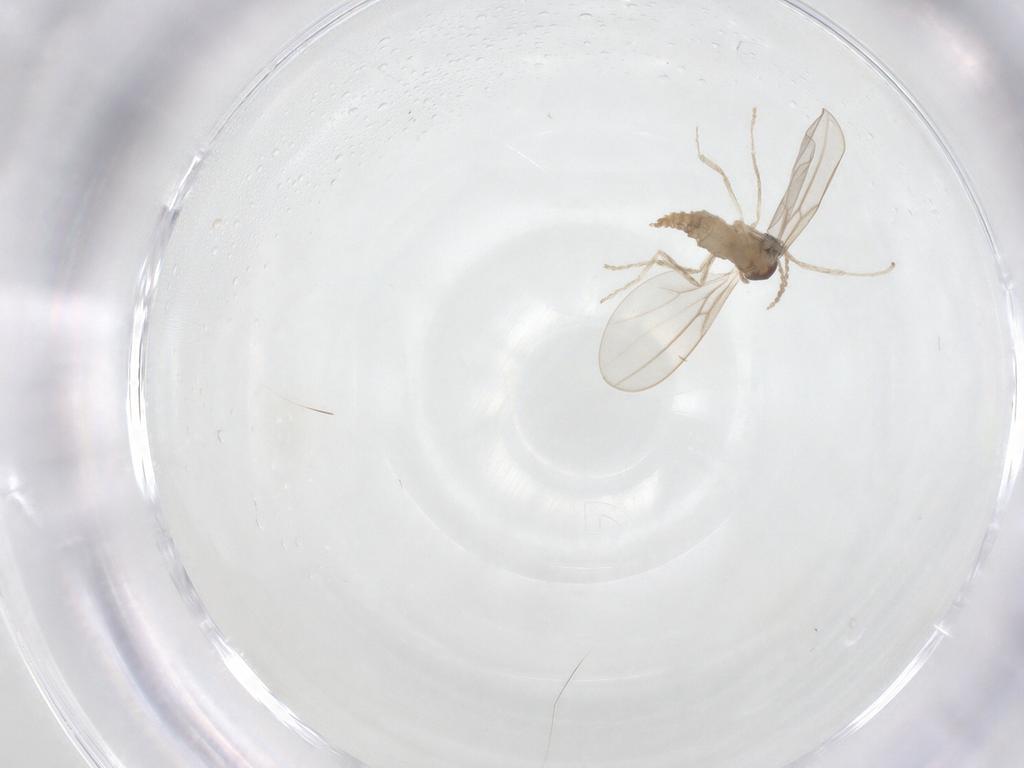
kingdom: Animalia
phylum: Arthropoda
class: Insecta
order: Diptera
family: Cecidomyiidae
